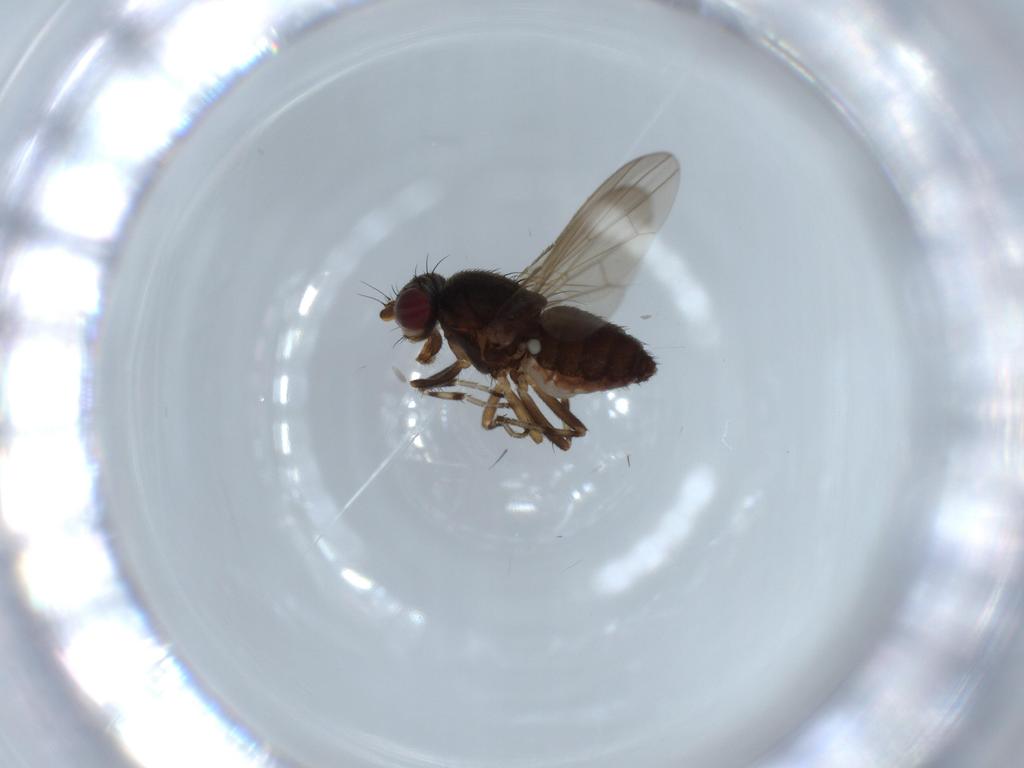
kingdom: Animalia
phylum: Arthropoda
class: Insecta
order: Diptera
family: Heleomyzidae
